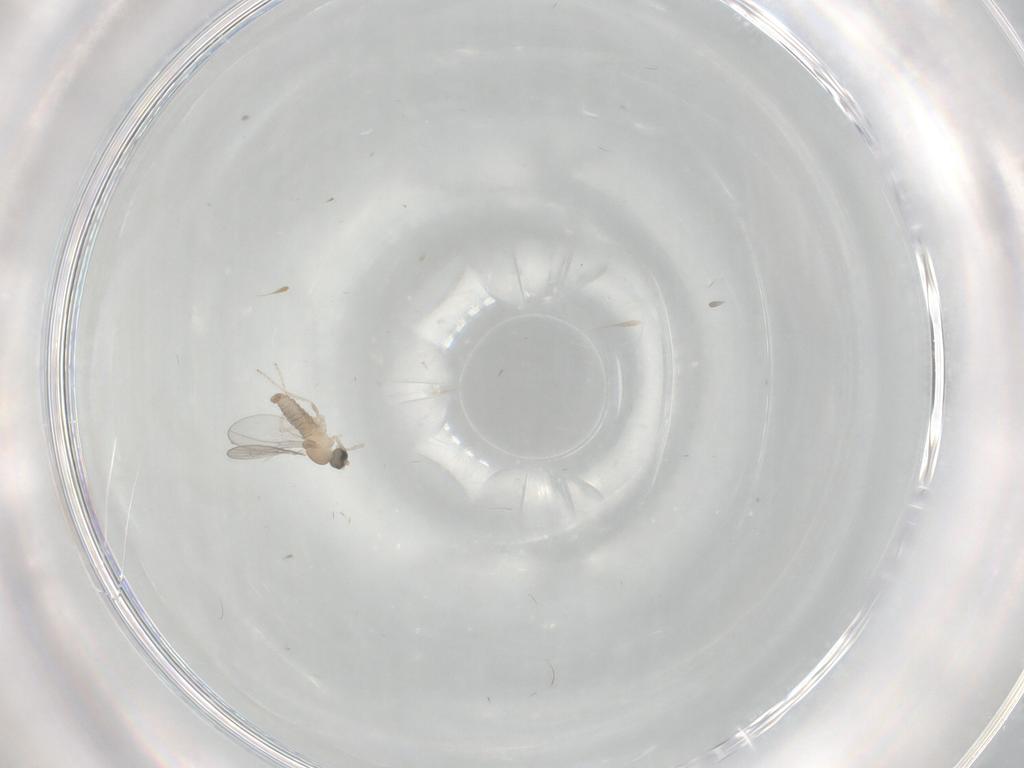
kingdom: Animalia
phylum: Arthropoda
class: Insecta
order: Diptera
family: Cecidomyiidae
